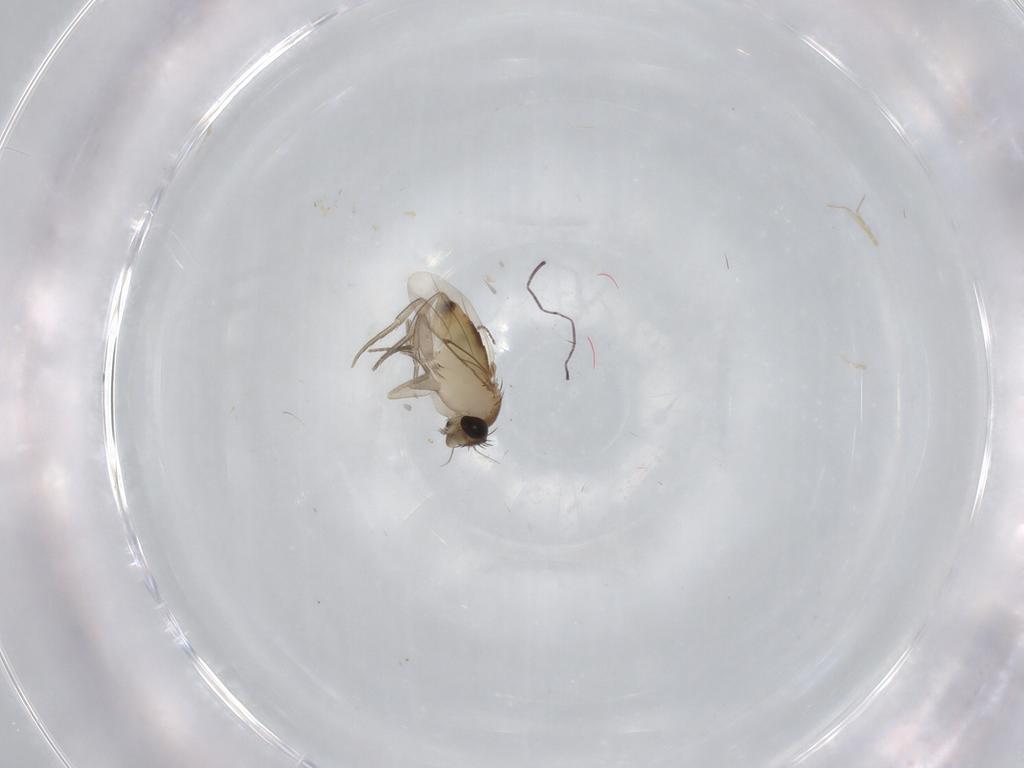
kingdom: Animalia
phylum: Arthropoda
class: Insecta
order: Diptera
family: Phoridae
